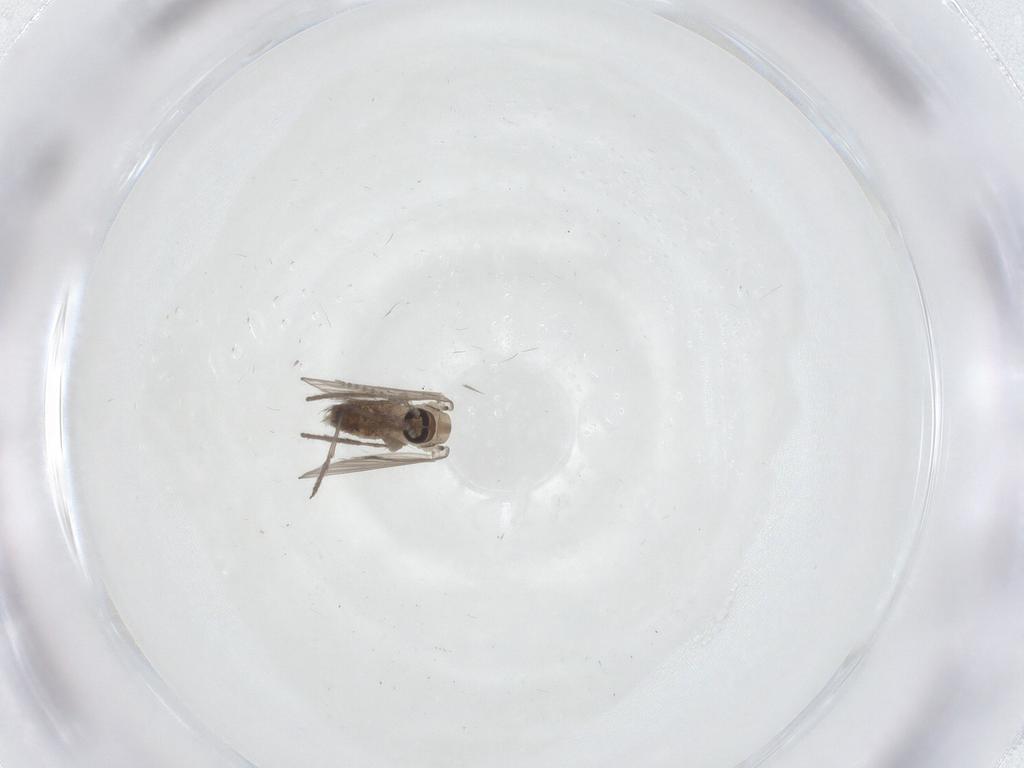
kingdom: Animalia
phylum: Arthropoda
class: Insecta
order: Diptera
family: Psychodidae
